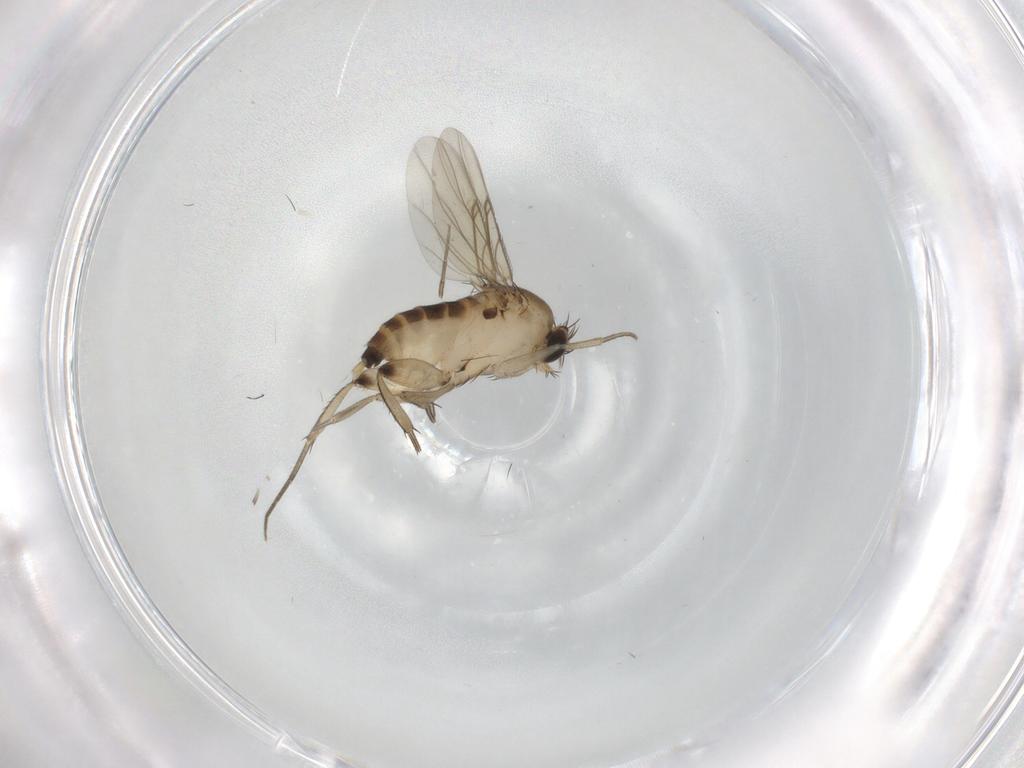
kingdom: Animalia
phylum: Arthropoda
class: Insecta
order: Diptera
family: Phoridae
